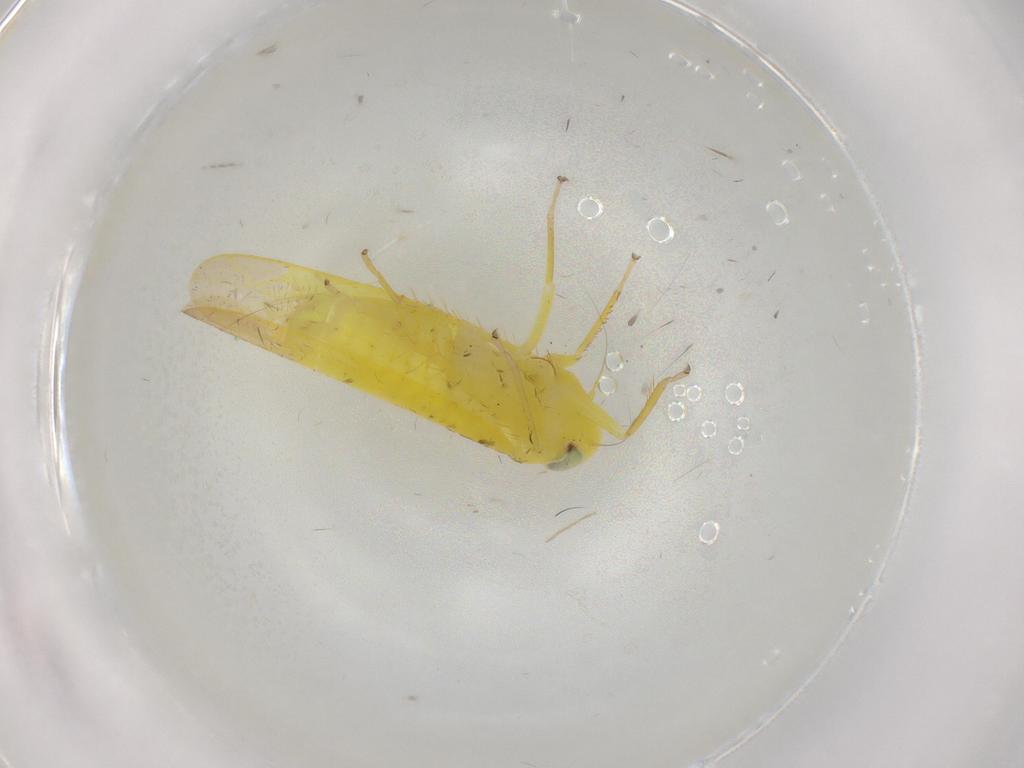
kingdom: Animalia
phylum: Arthropoda
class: Insecta
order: Hemiptera
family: Cicadellidae
